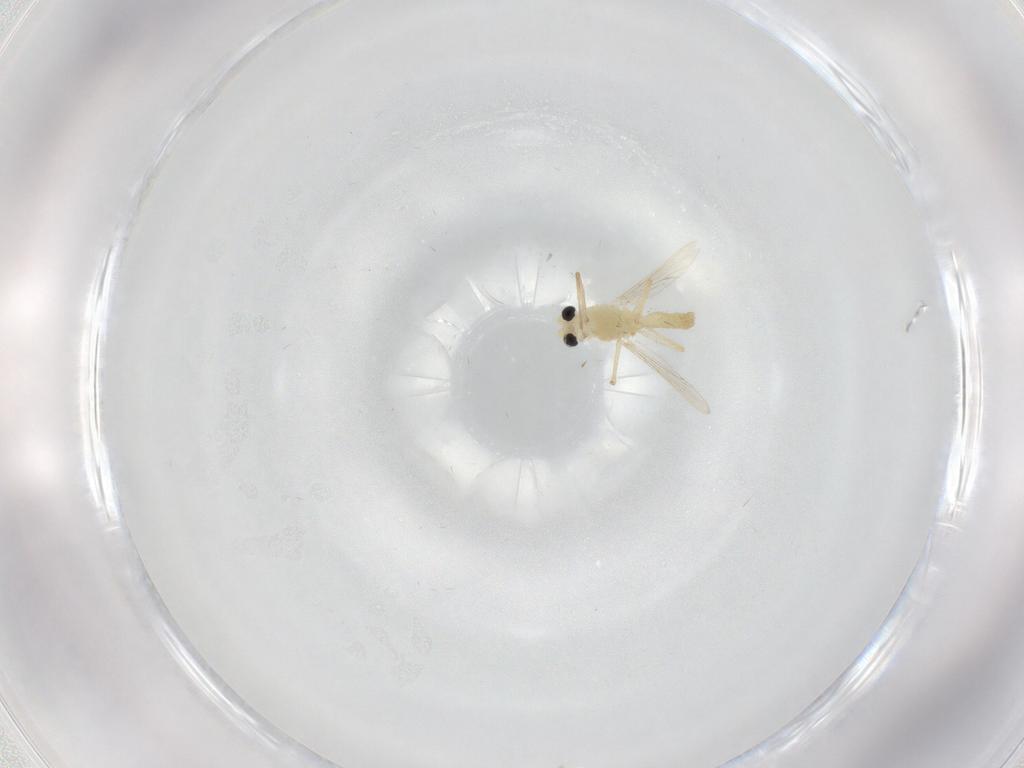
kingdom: Animalia
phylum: Arthropoda
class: Insecta
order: Diptera
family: Chironomidae
